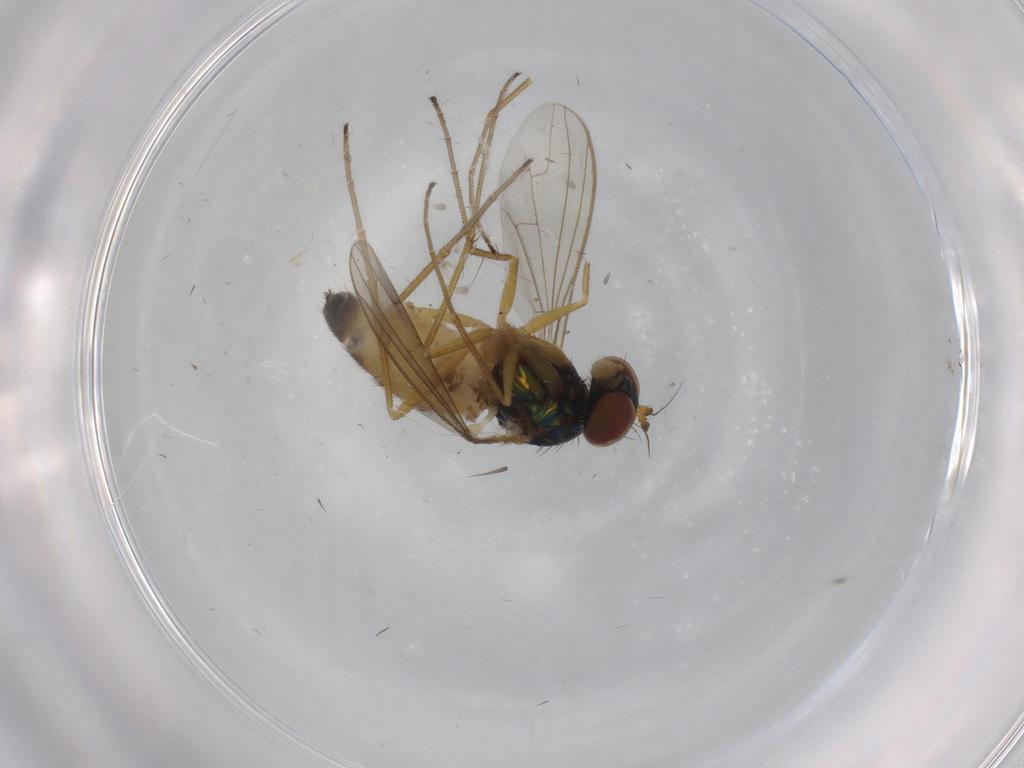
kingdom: Animalia
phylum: Arthropoda
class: Insecta
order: Diptera
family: Dolichopodidae
